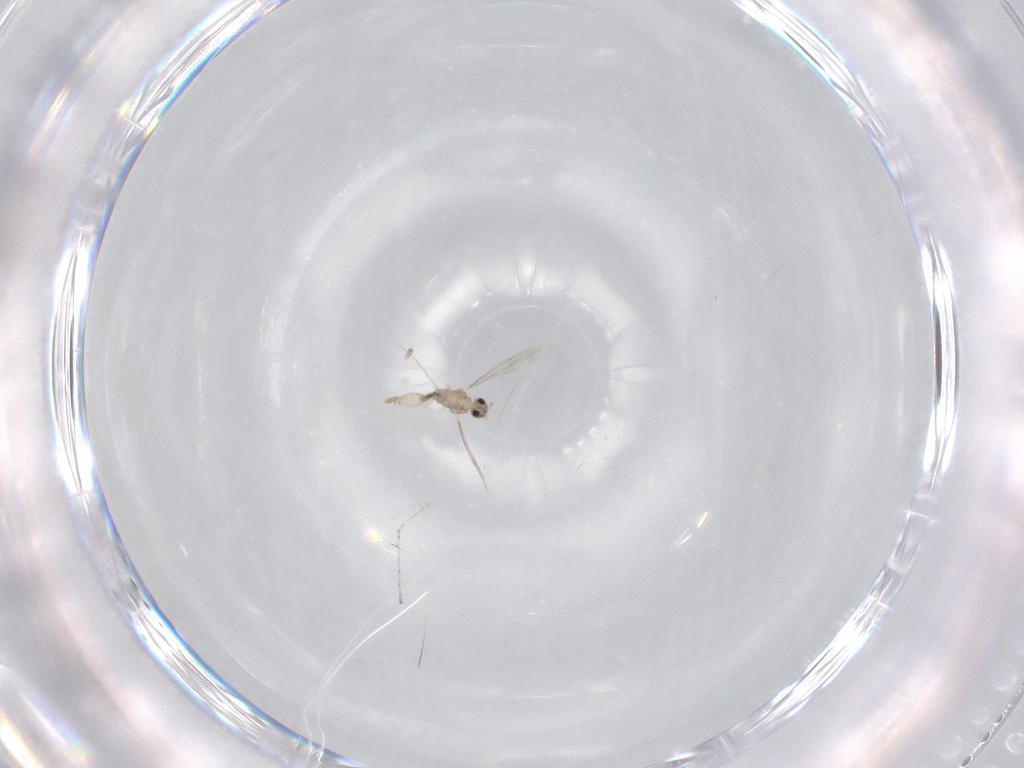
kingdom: Animalia
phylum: Arthropoda
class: Insecta
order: Diptera
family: Cecidomyiidae
